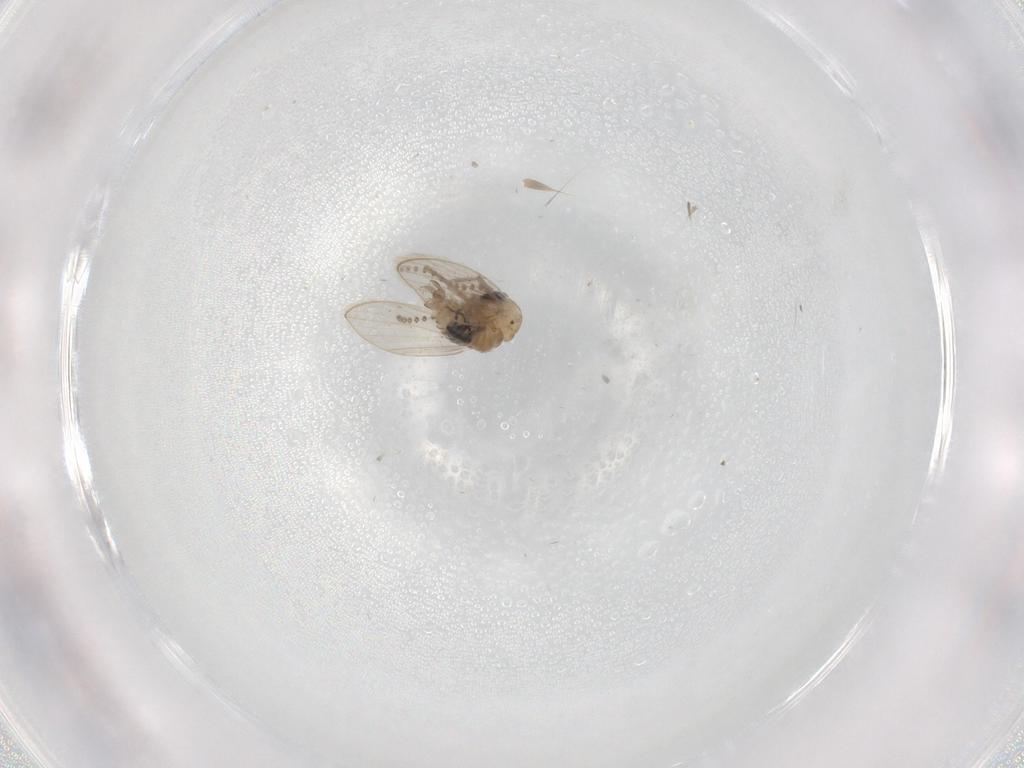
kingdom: Animalia
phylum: Arthropoda
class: Insecta
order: Diptera
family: Psychodidae
